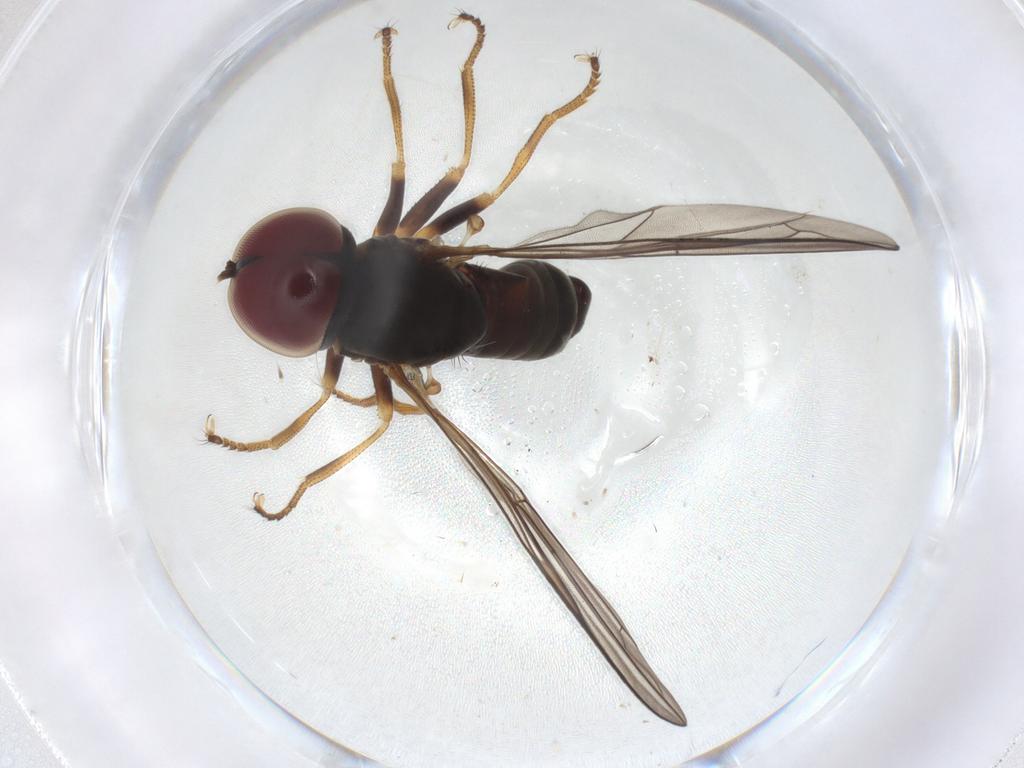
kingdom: Animalia
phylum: Arthropoda
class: Insecta
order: Diptera
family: Pipunculidae
